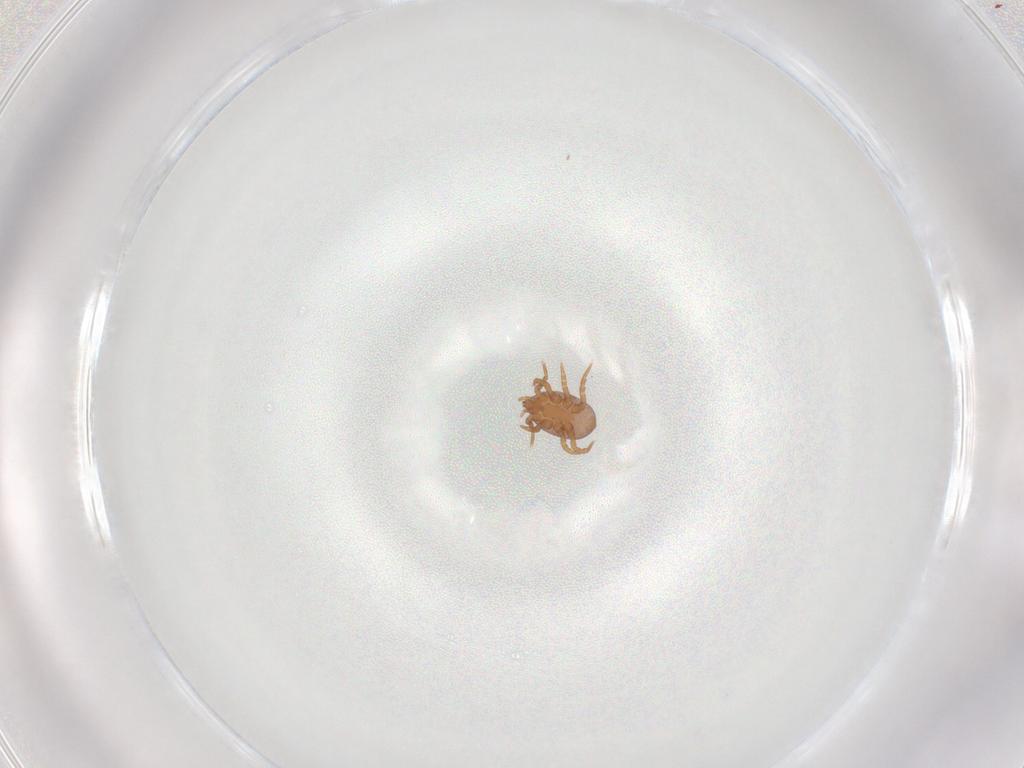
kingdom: Animalia
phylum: Arthropoda
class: Arachnida
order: Mesostigmata
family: Eviphididae
